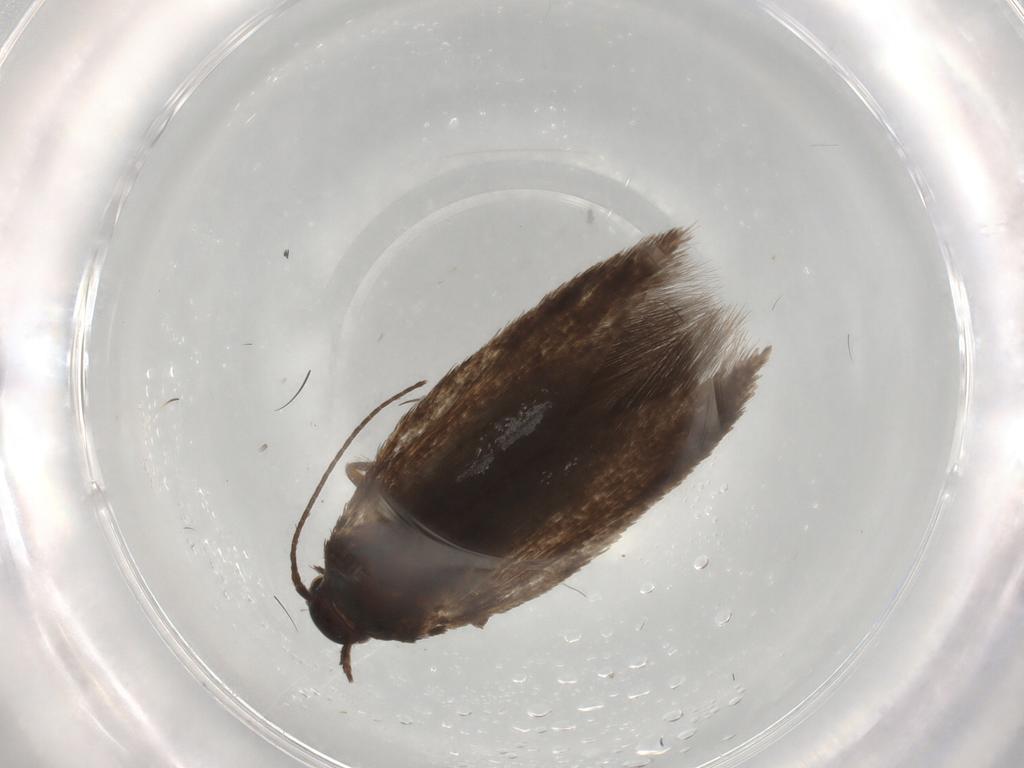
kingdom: Animalia
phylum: Arthropoda
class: Insecta
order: Lepidoptera
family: Scythrididae
